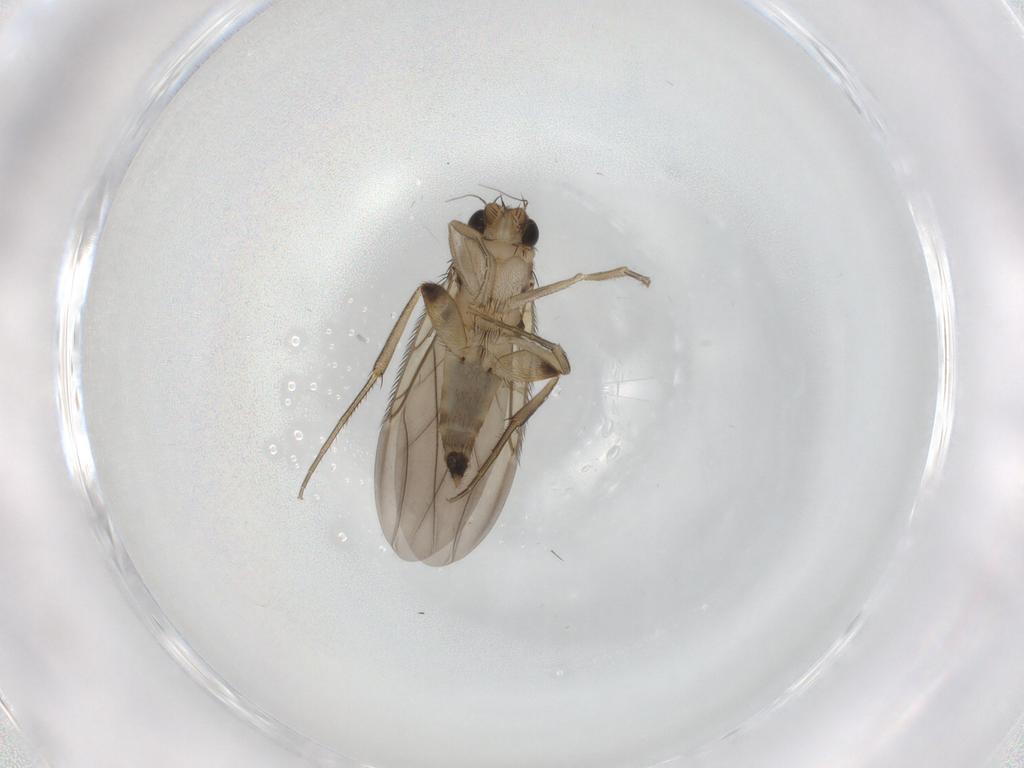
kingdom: Animalia
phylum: Arthropoda
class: Insecta
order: Diptera
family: Phoridae
